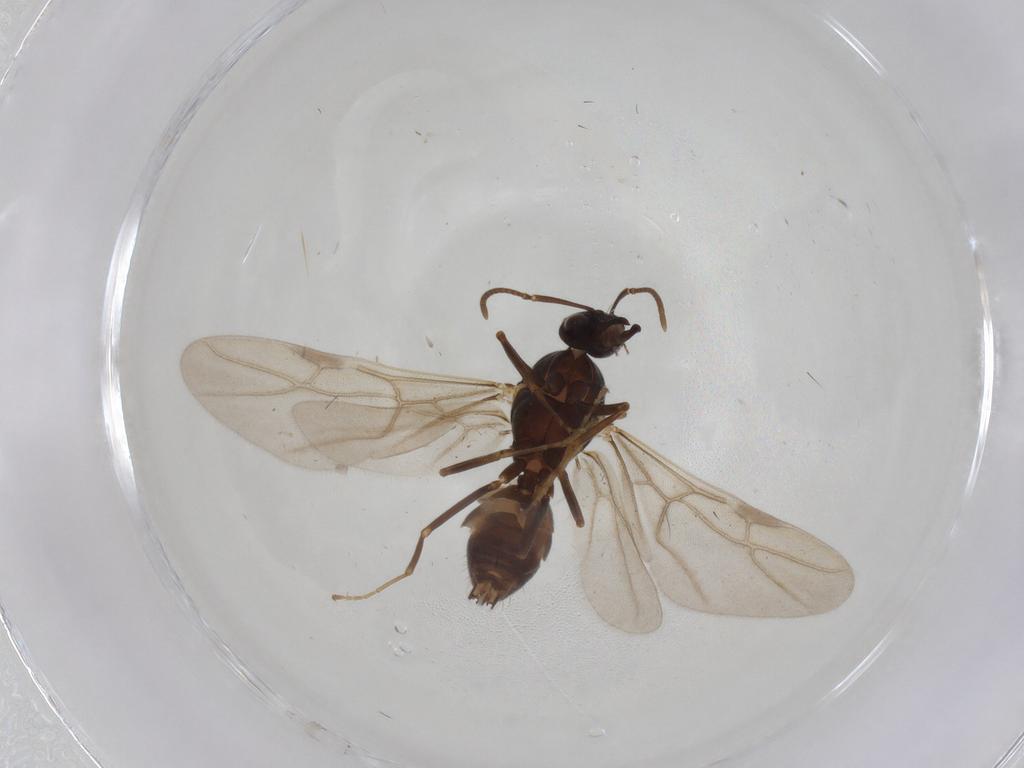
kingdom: Animalia
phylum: Arthropoda
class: Insecta
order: Hymenoptera
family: Formicidae
